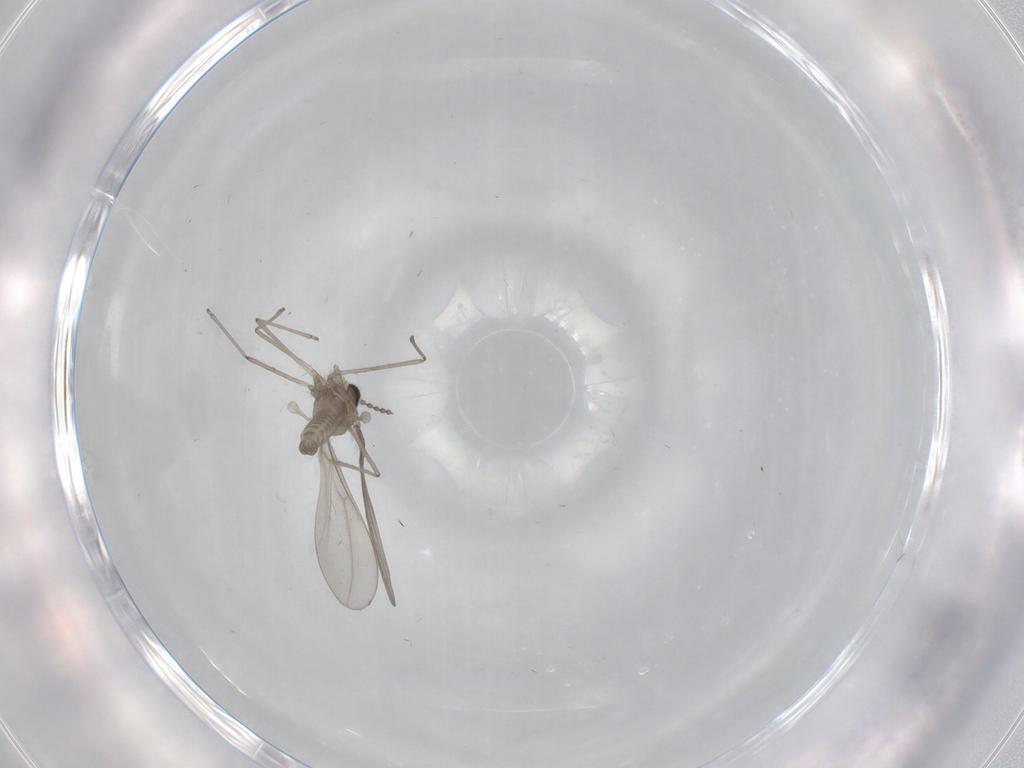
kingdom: Animalia
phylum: Arthropoda
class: Insecta
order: Diptera
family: Cecidomyiidae
